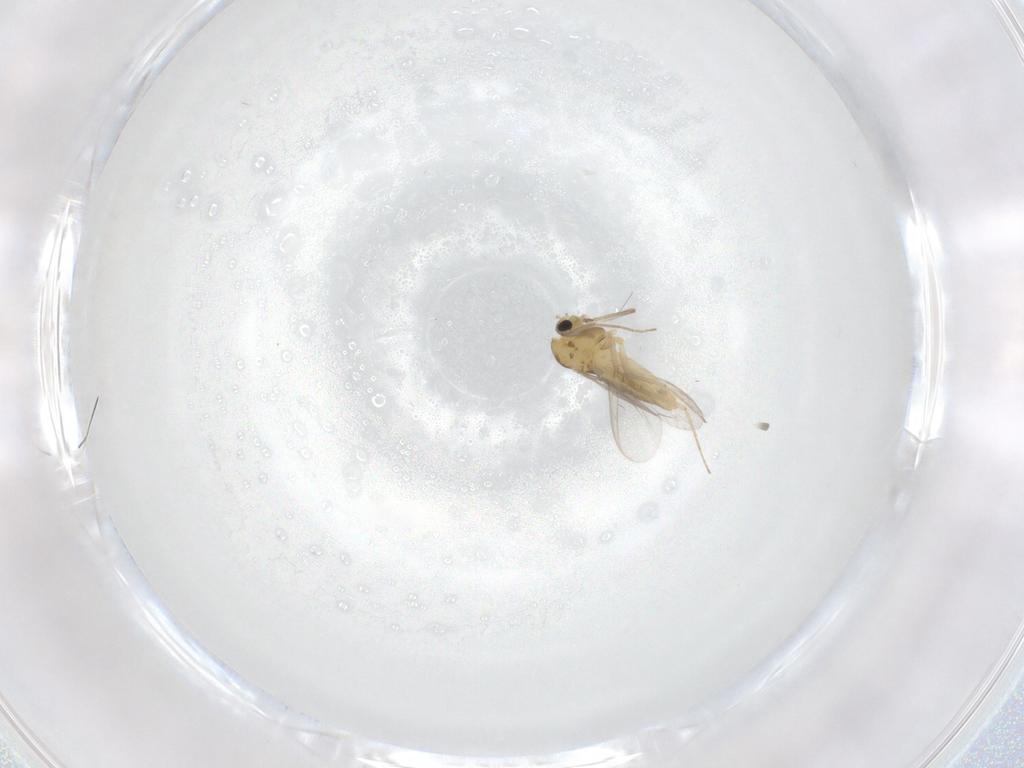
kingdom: Animalia
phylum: Arthropoda
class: Insecta
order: Diptera
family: Chironomidae
